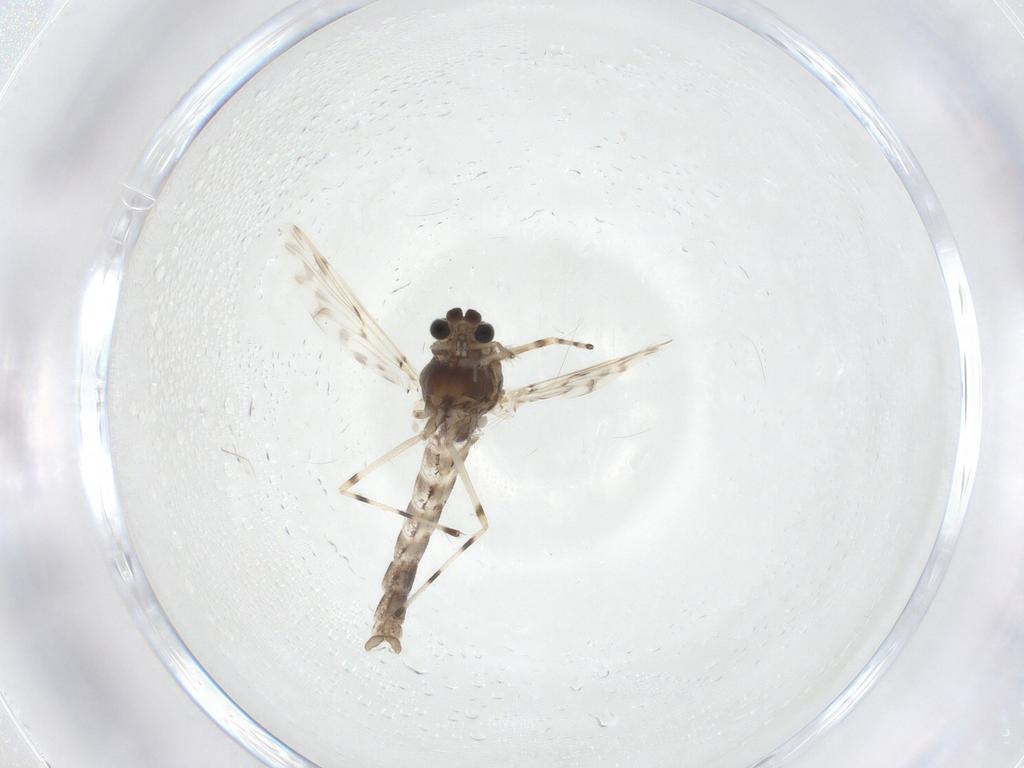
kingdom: Animalia
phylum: Arthropoda
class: Insecta
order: Diptera
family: Chironomidae
